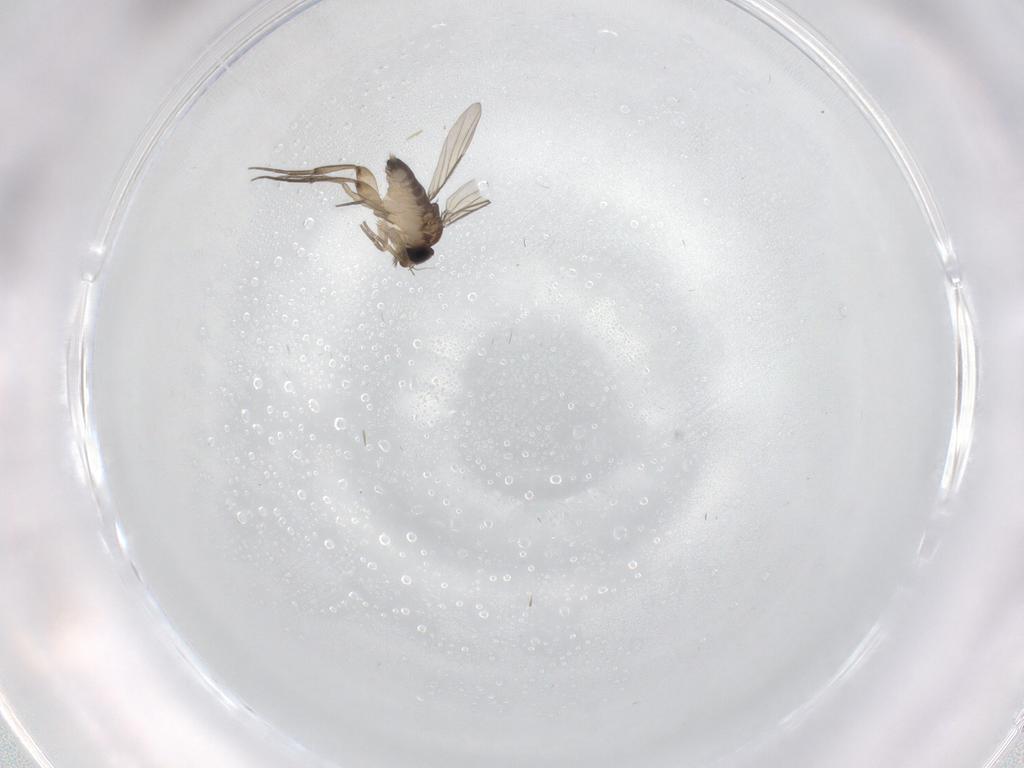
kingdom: Animalia
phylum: Arthropoda
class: Insecta
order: Diptera
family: Phoridae
